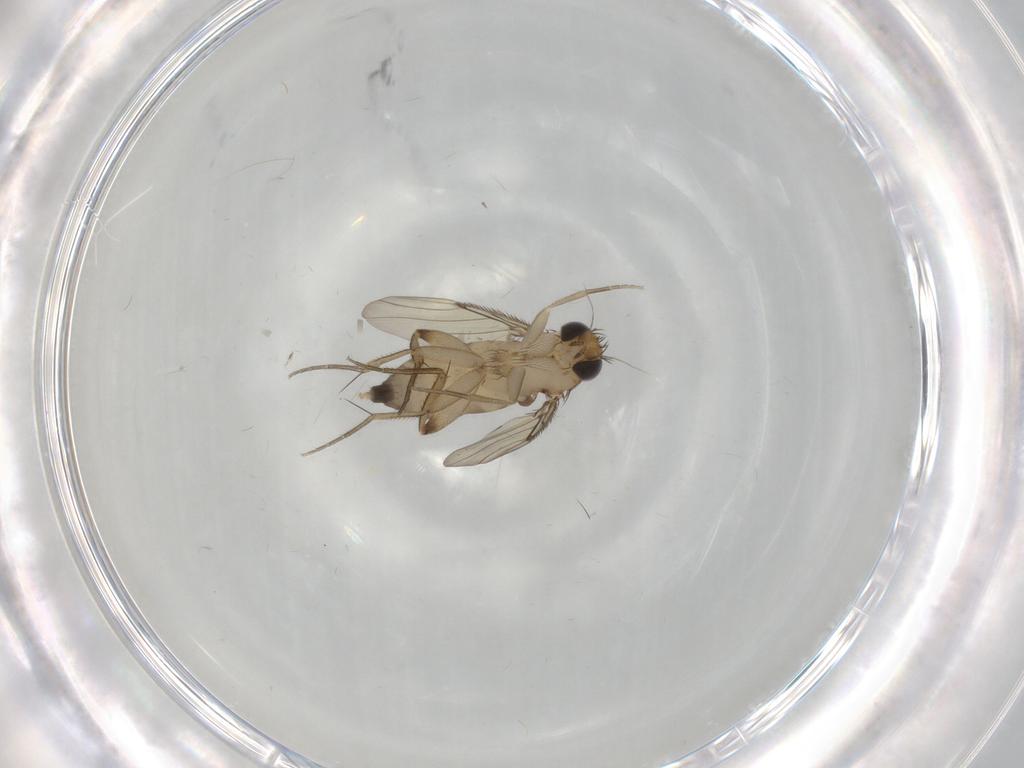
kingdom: Animalia
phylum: Arthropoda
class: Insecta
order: Diptera
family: Phoridae
